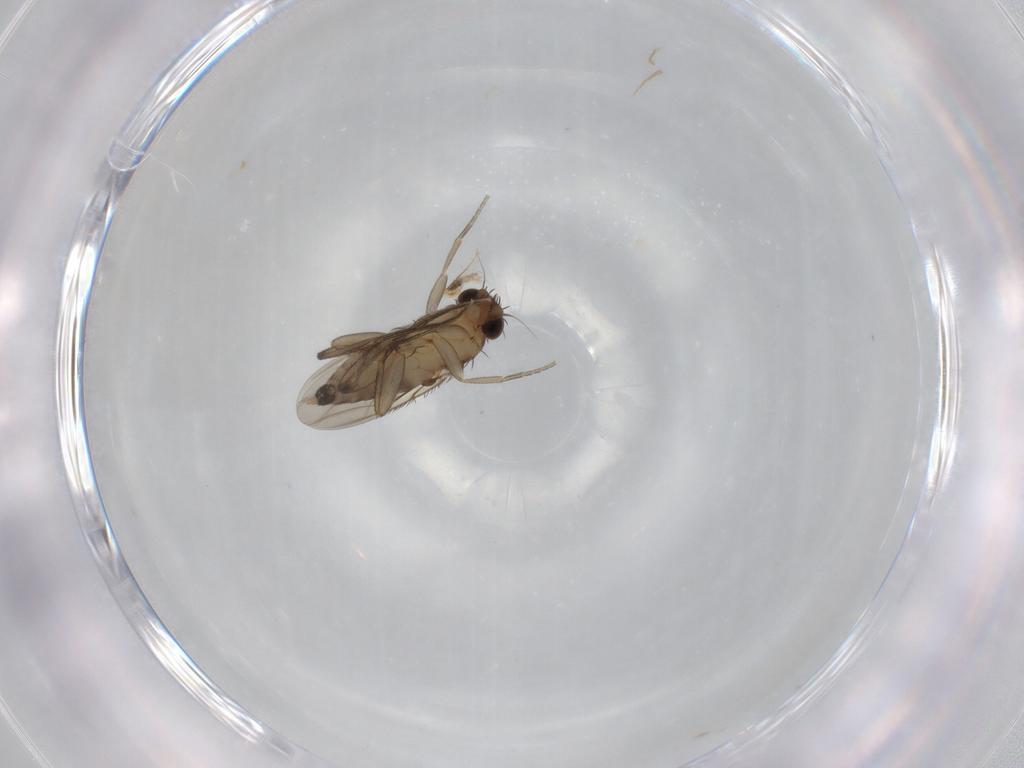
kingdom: Animalia
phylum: Arthropoda
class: Insecta
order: Diptera
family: Phoridae
